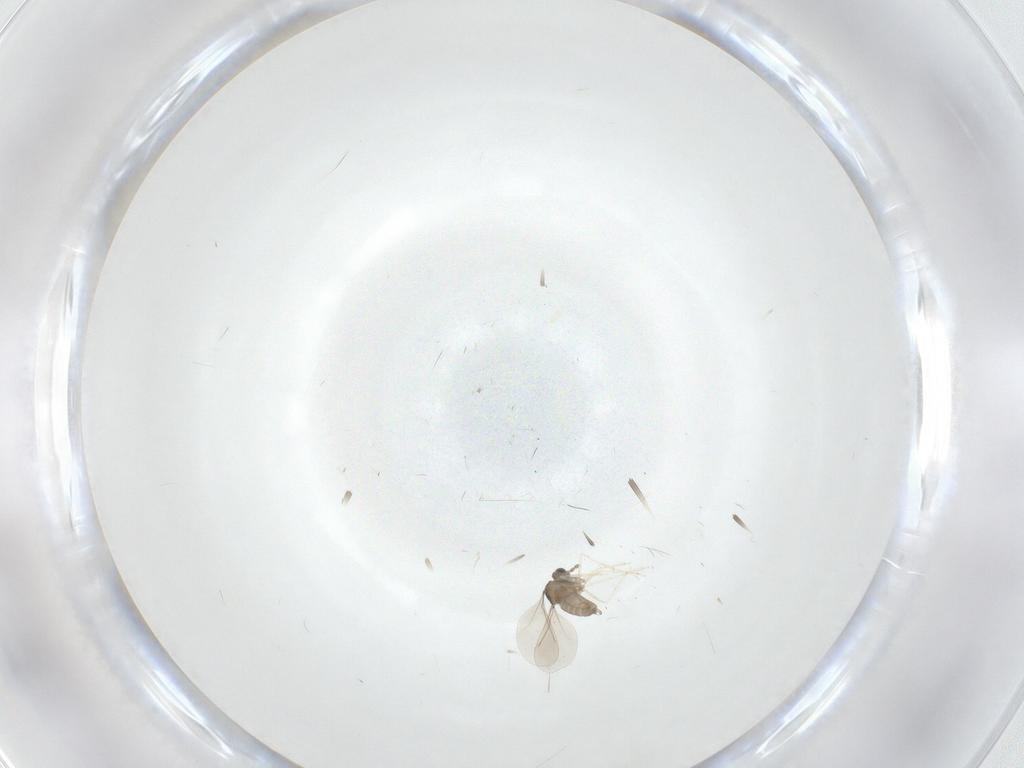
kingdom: Animalia
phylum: Arthropoda
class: Insecta
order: Diptera
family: Cecidomyiidae
